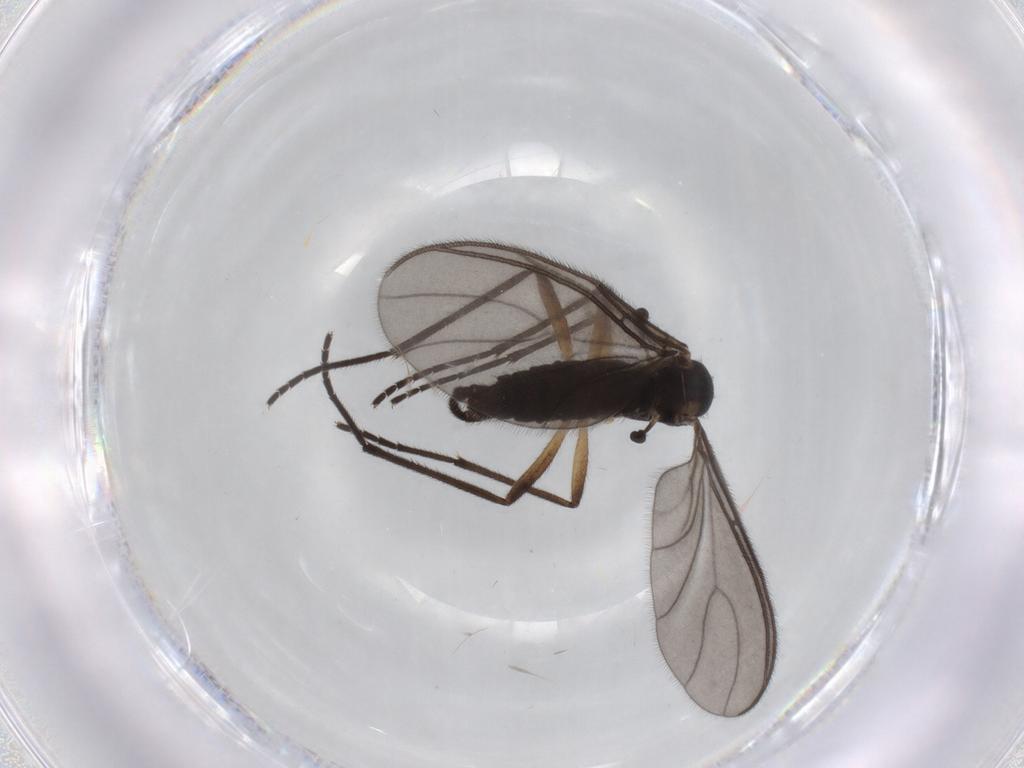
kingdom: Animalia
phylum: Arthropoda
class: Insecta
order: Diptera
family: Sciaridae
